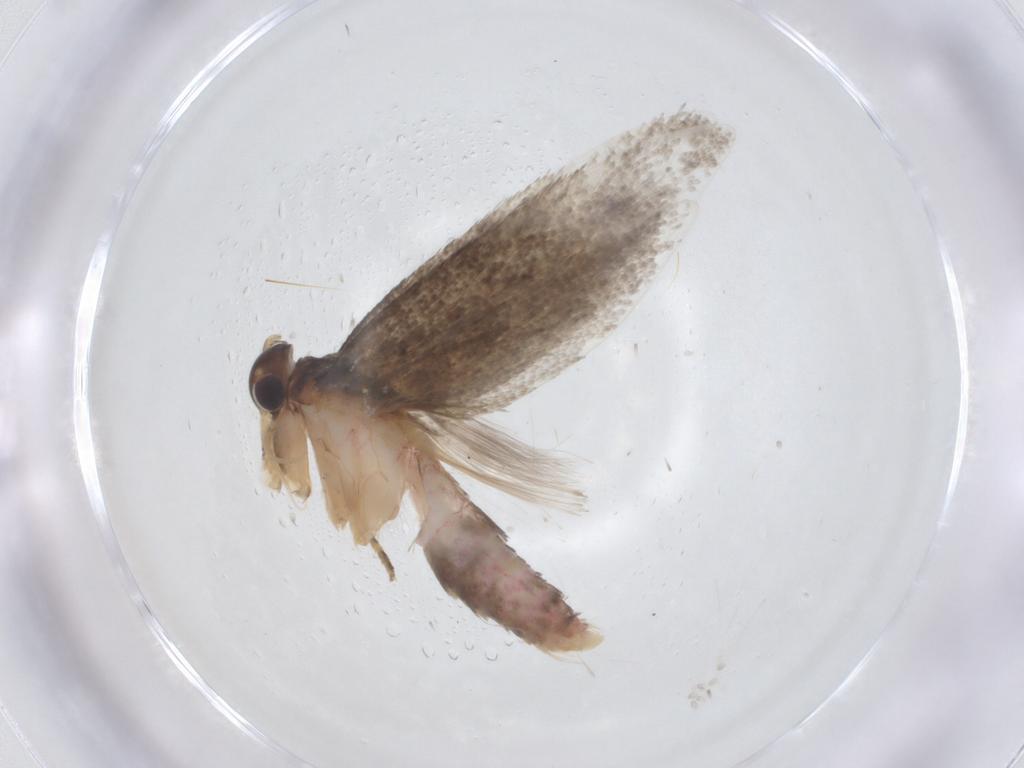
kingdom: Animalia
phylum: Arthropoda
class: Insecta
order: Lepidoptera
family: Oecophoridae
